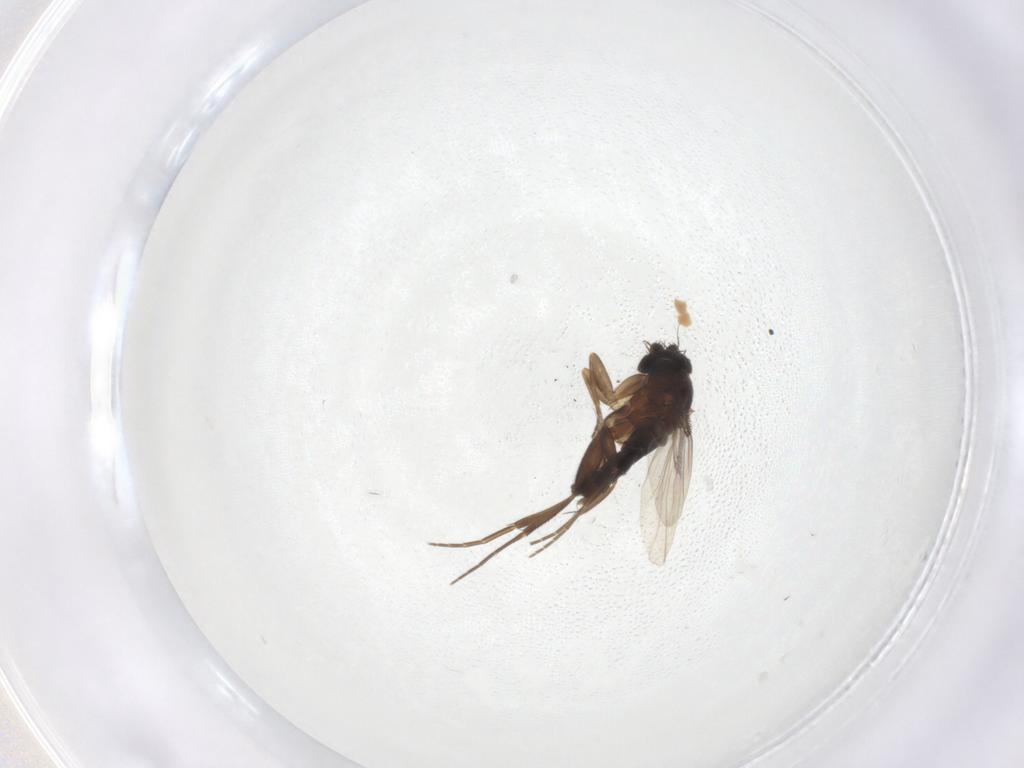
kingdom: Animalia
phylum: Arthropoda
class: Insecta
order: Diptera
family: Phoridae
